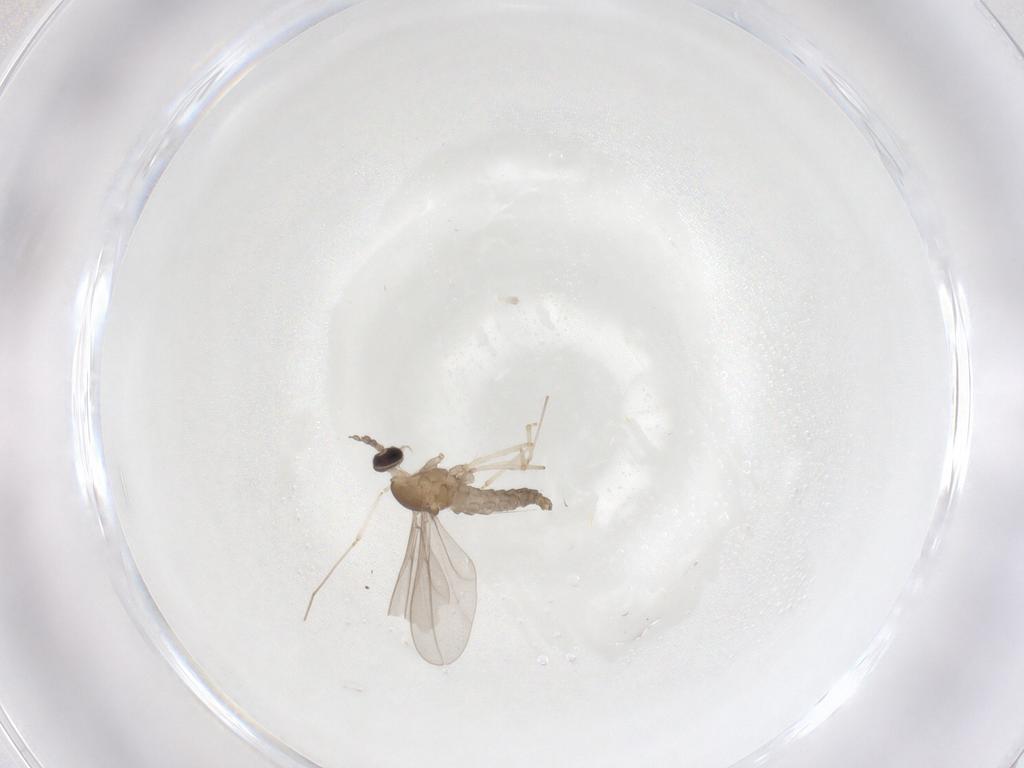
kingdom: Animalia
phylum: Arthropoda
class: Insecta
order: Diptera
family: Cecidomyiidae
